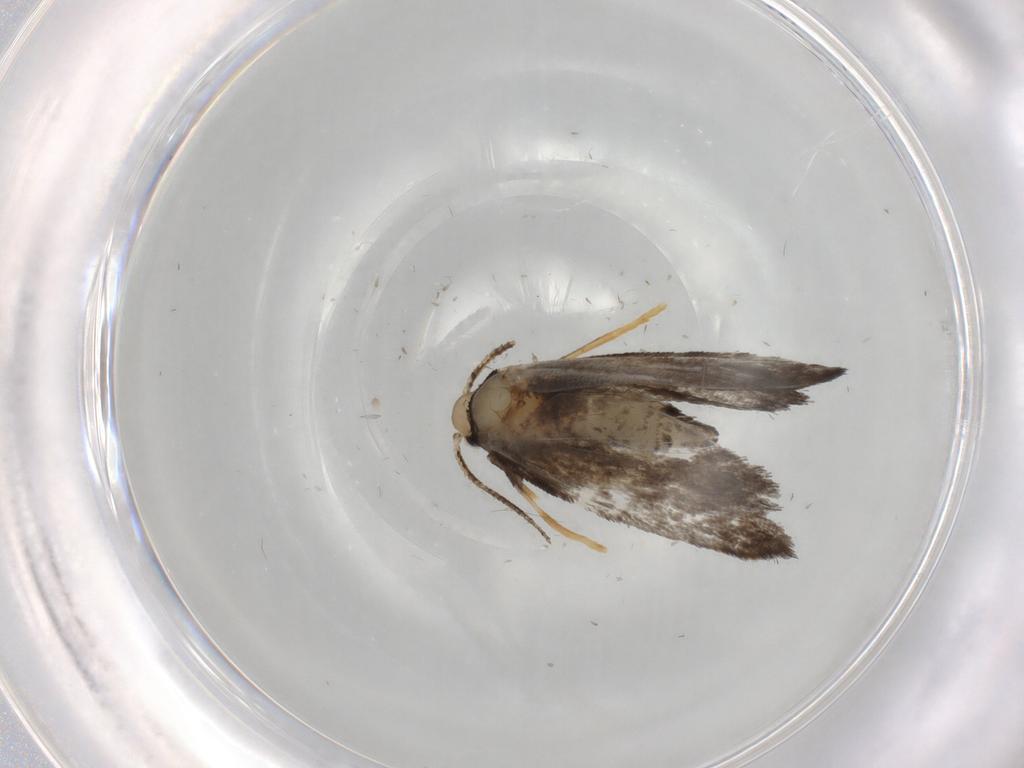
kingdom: Animalia
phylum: Arthropoda
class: Insecta
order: Lepidoptera
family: Psychidae
